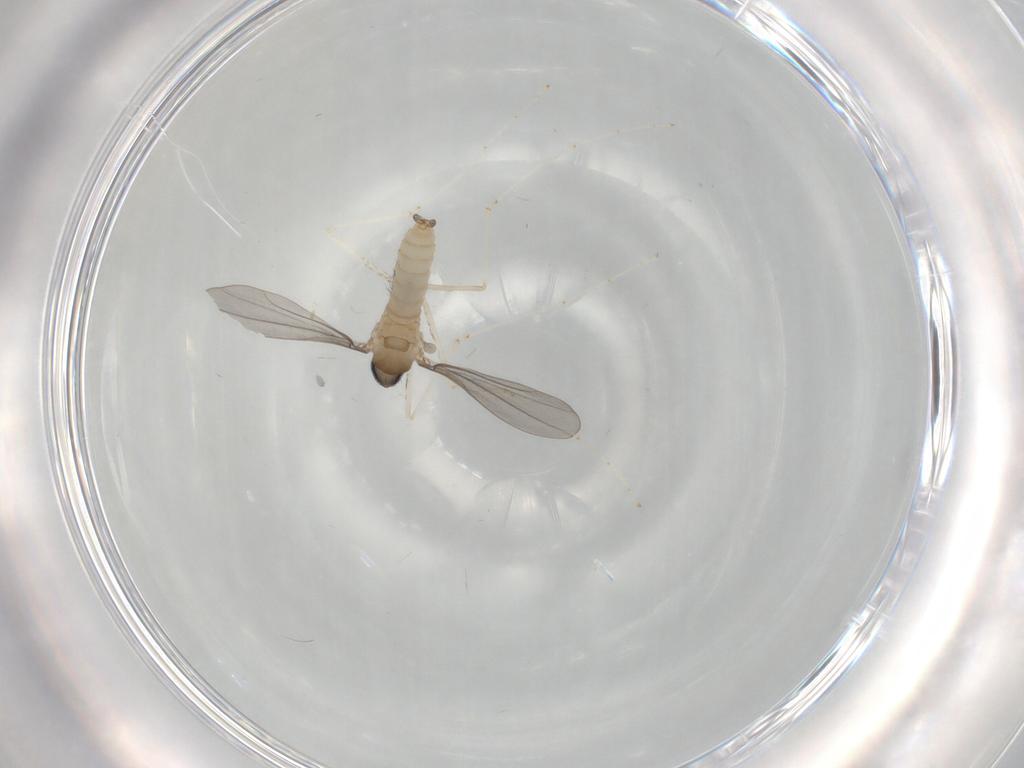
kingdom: Animalia
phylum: Arthropoda
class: Insecta
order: Diptera
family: Cecidomyiidae
